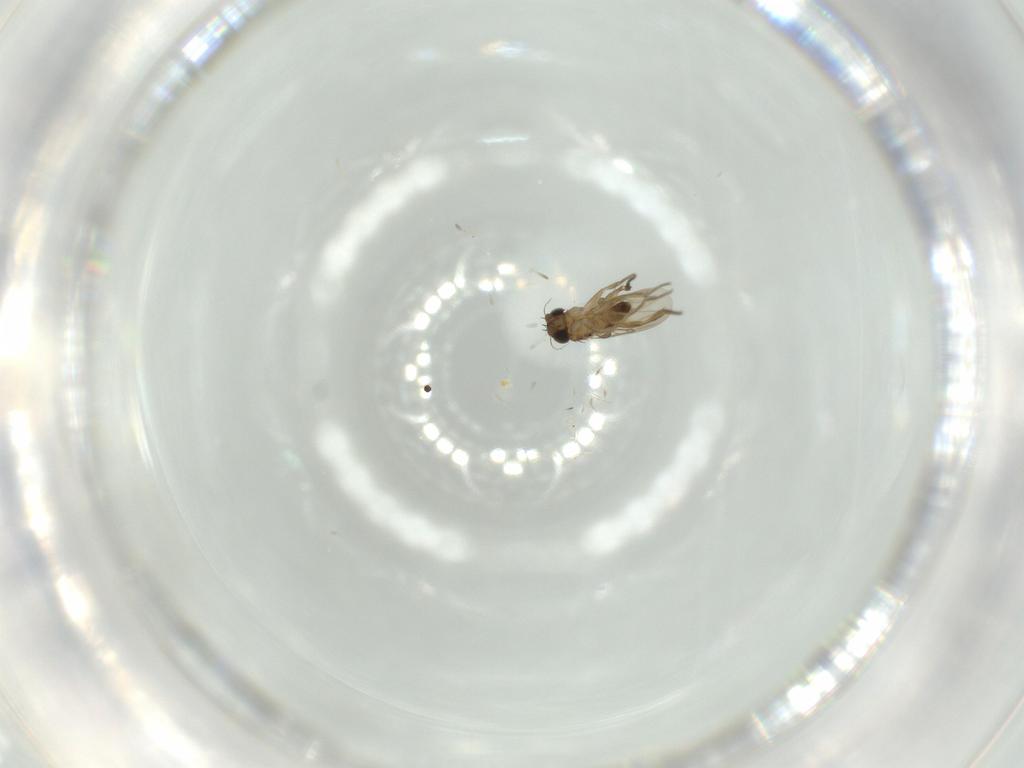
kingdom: Animalia
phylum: Arthropoda
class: Insecta
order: Diptera
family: Phoridae
